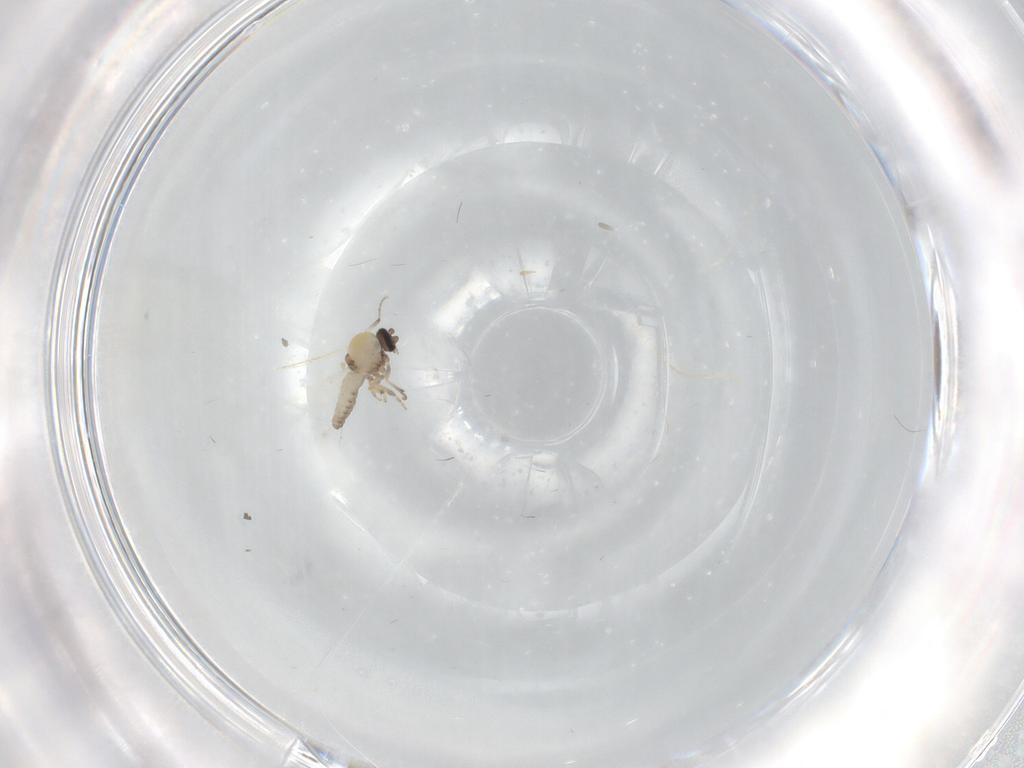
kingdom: Animalia
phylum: Arthropoda
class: Insecta
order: Diptera
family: Ceratopogonidae
